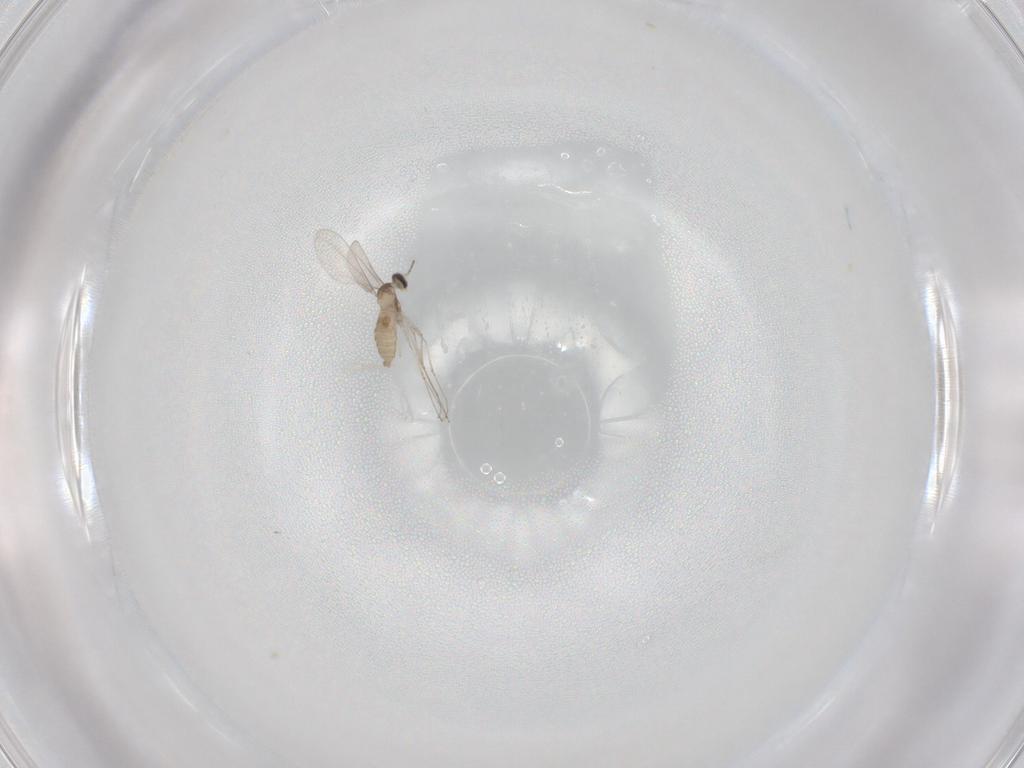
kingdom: Animalia
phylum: Arthropoda
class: Insecta
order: Diptera
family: Cecidomyiidae
